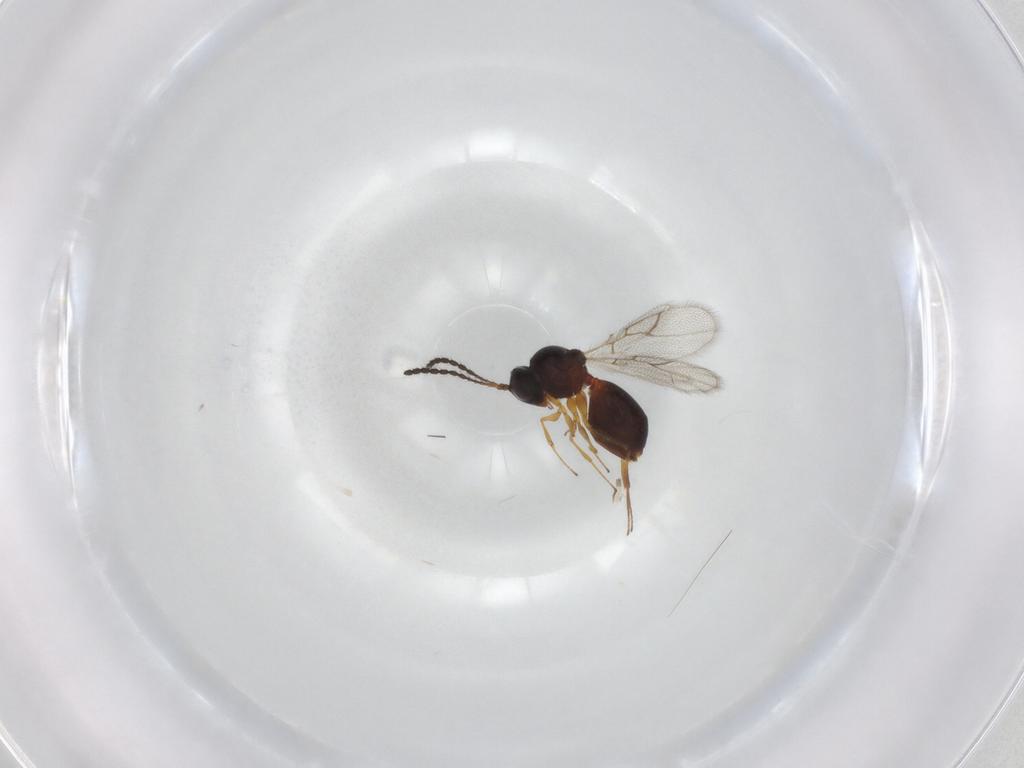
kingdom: Animalia
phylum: Arthropoda
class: Insecta
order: Hymenoptera
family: Figitidae
